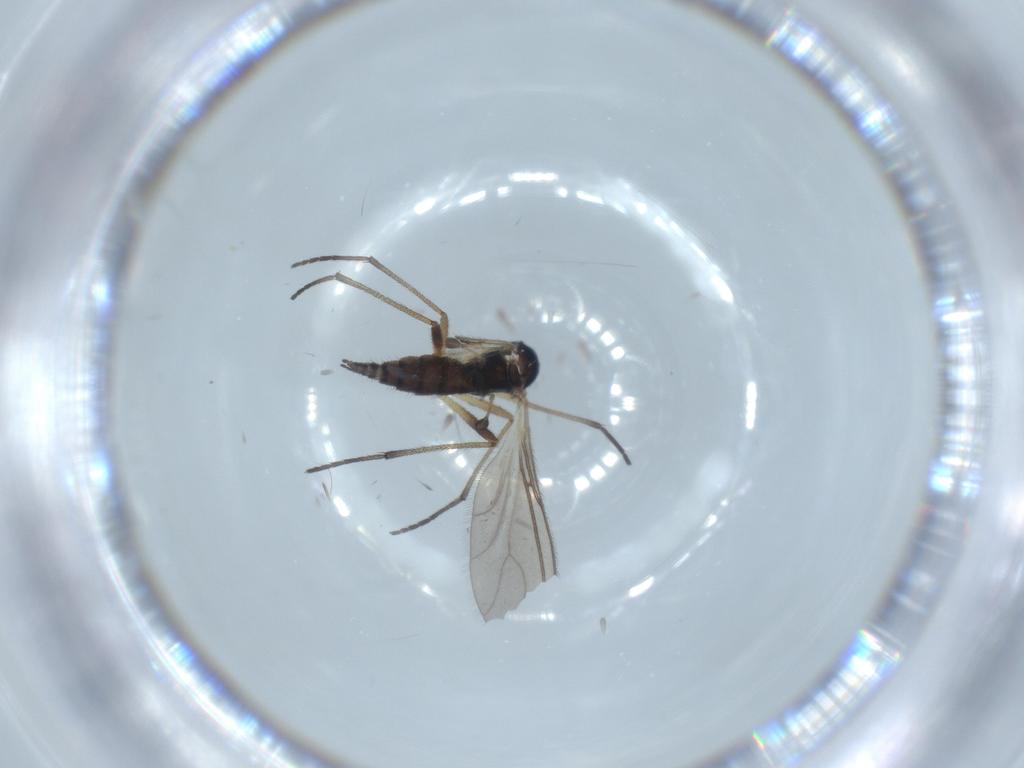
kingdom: Animalia
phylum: Arthropoda
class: Insecta
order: Diptera
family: Sciaridae
